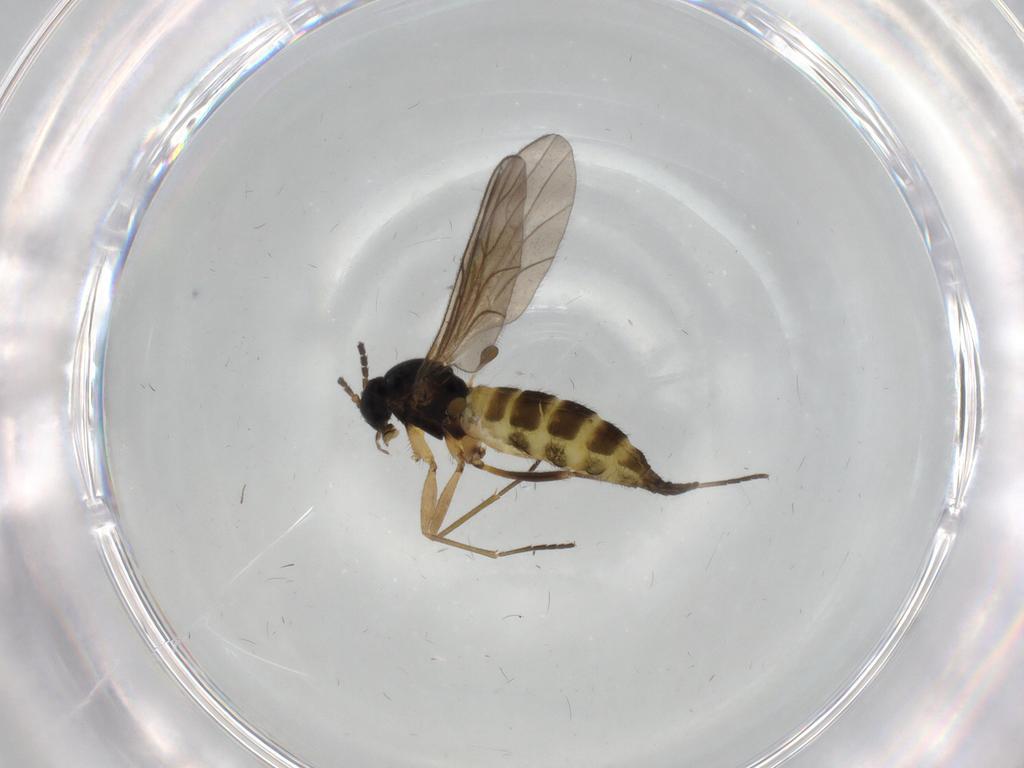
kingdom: Animalia
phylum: Arthropoda
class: Insecta
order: Diptera
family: Sciaridae
